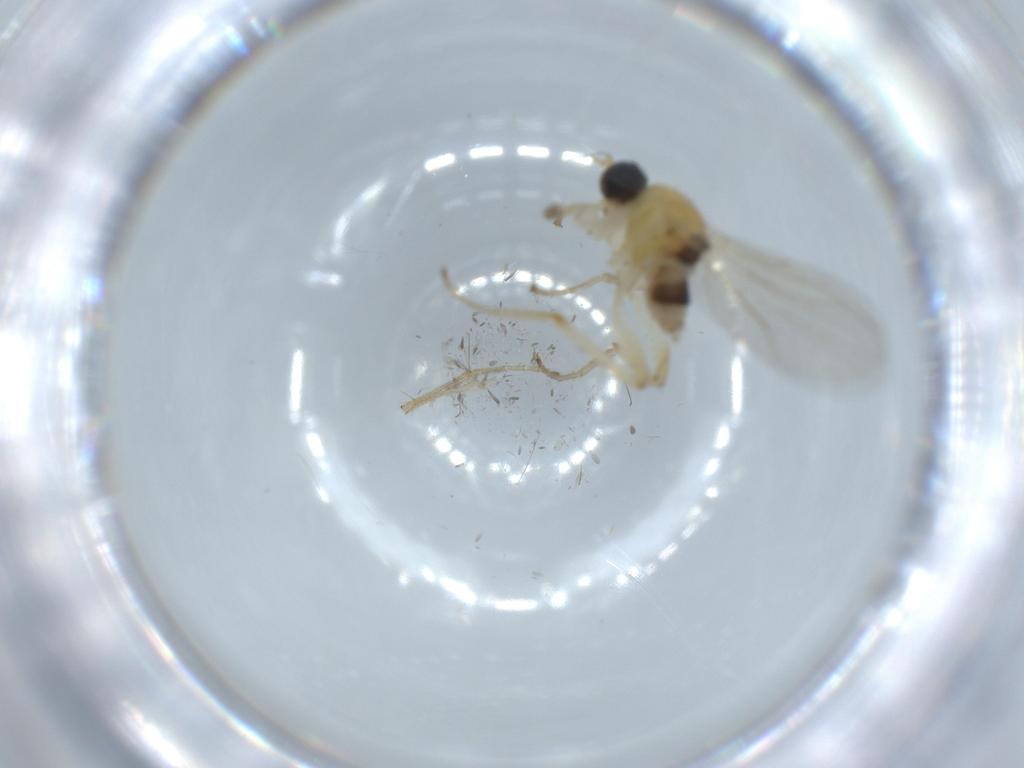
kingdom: Animalia
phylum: Arthropoda
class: Insecta
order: Diptera
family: Hybotidae
